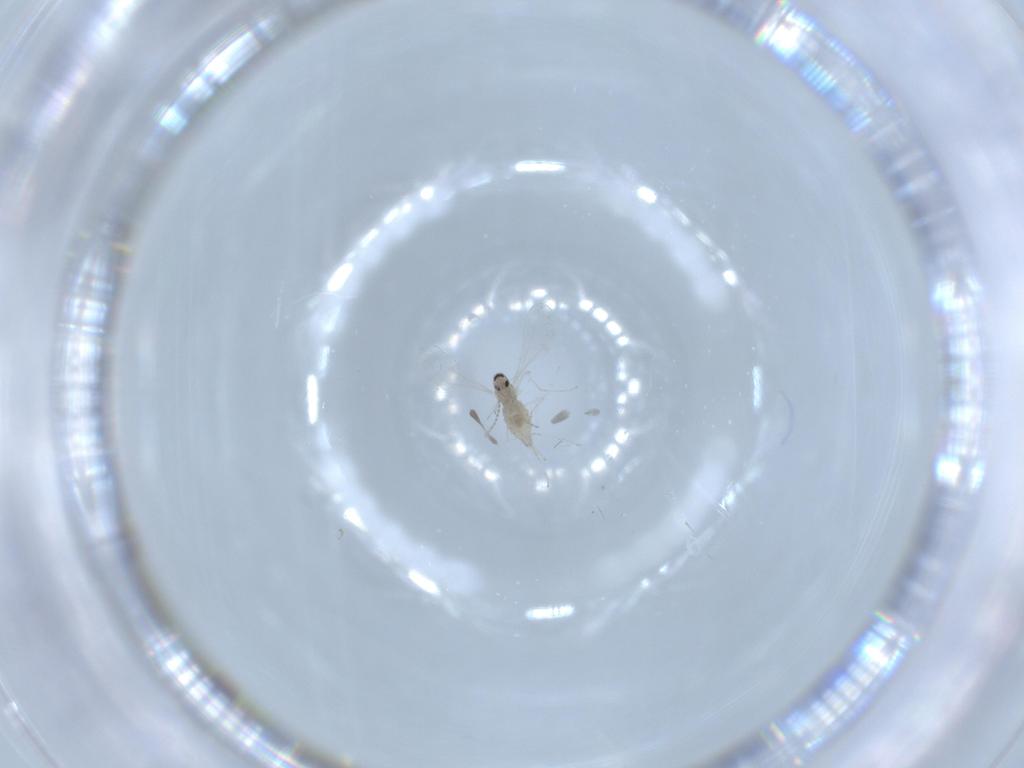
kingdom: Animalia
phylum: Arthropoda
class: Insecta
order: Diptera
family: Cecidomyiidae
